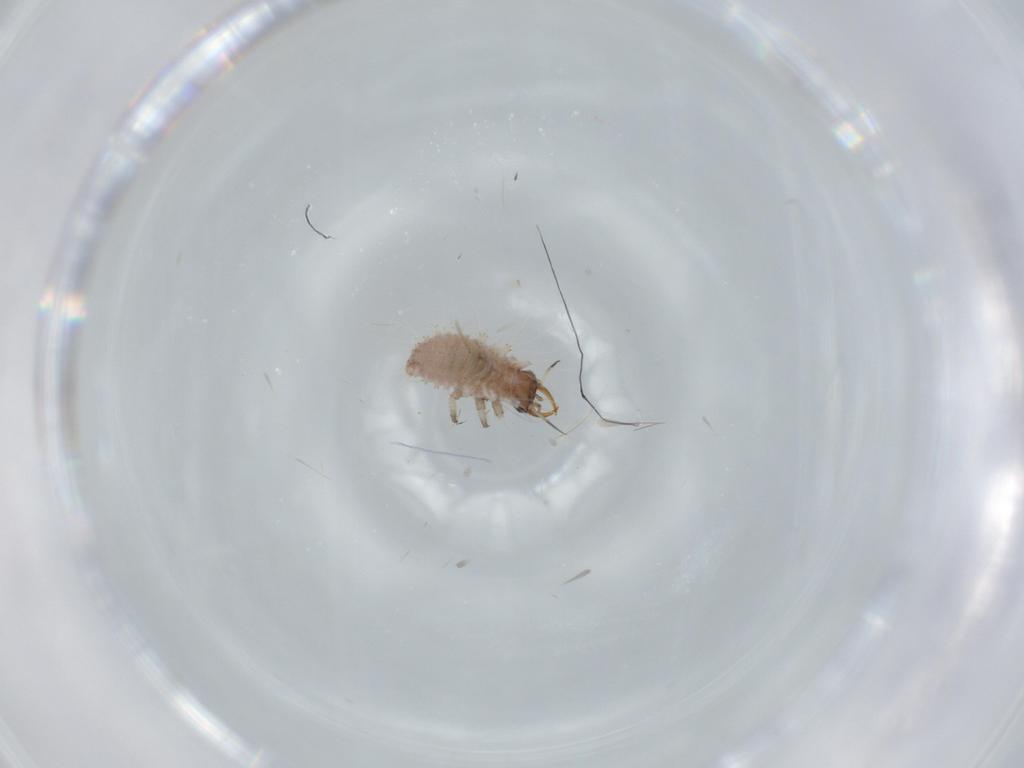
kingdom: Animalia
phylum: Arthropoda
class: Insecta
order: Neuroptera
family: Chrysopidae
